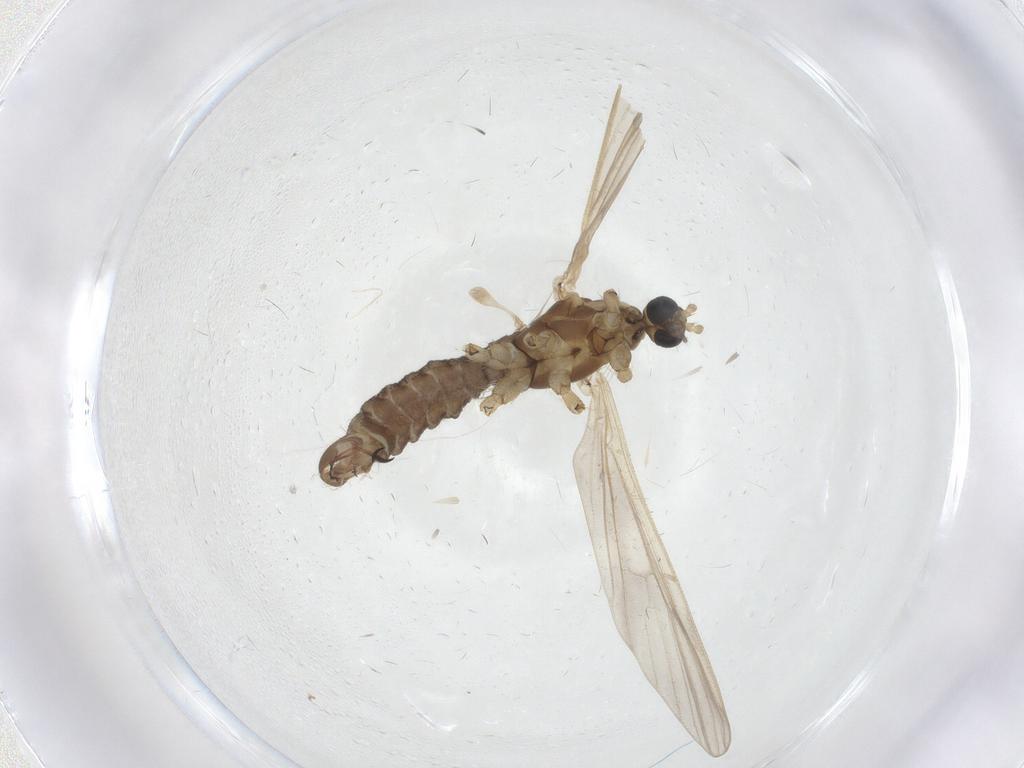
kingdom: Animalia
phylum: Arthropoda
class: Insecta
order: Diptera
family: Limoniidae
